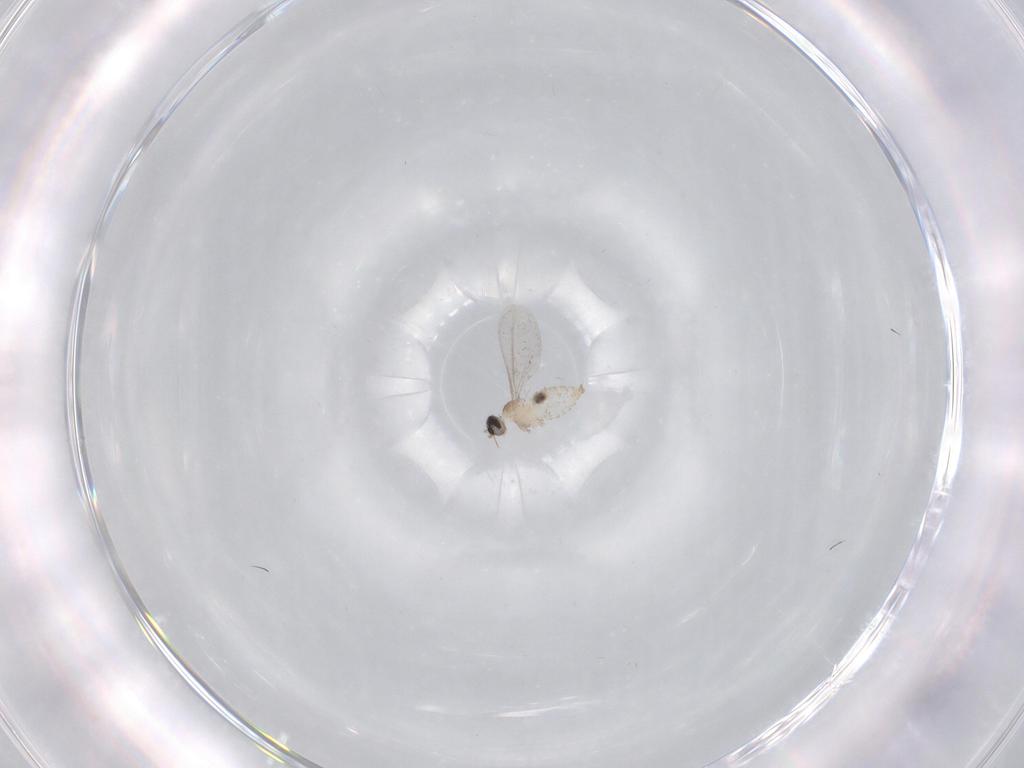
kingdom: Animalia
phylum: Arthropoda
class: Insecta
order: Diptera
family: Cecidomyiidae
